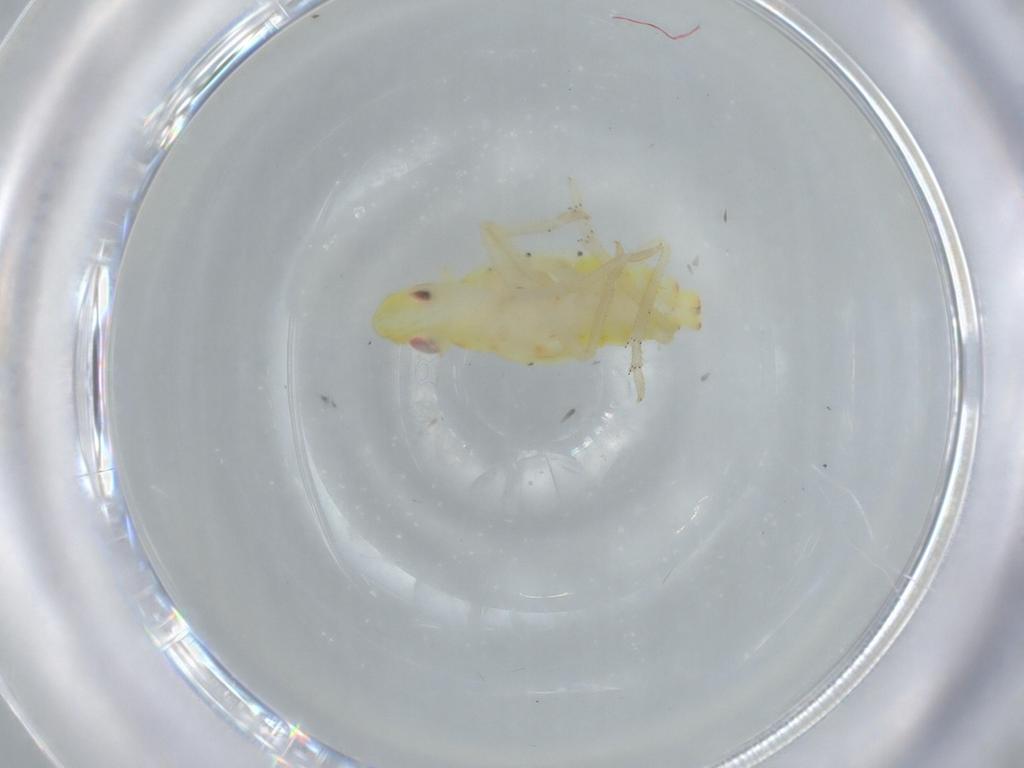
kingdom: Animalia
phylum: Arthropoda
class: Insecta
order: Hemiptera
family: Tropiduchidae
